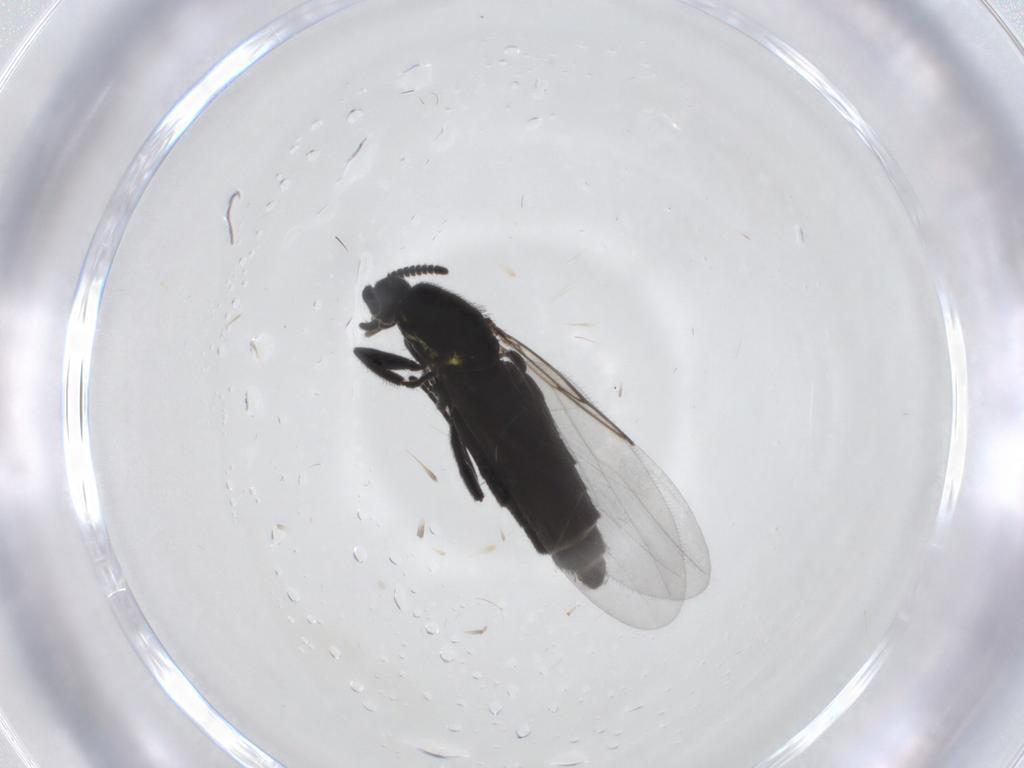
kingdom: Animalia
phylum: Arthropoda
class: Insecta
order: Diptera
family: Scatopsidae
